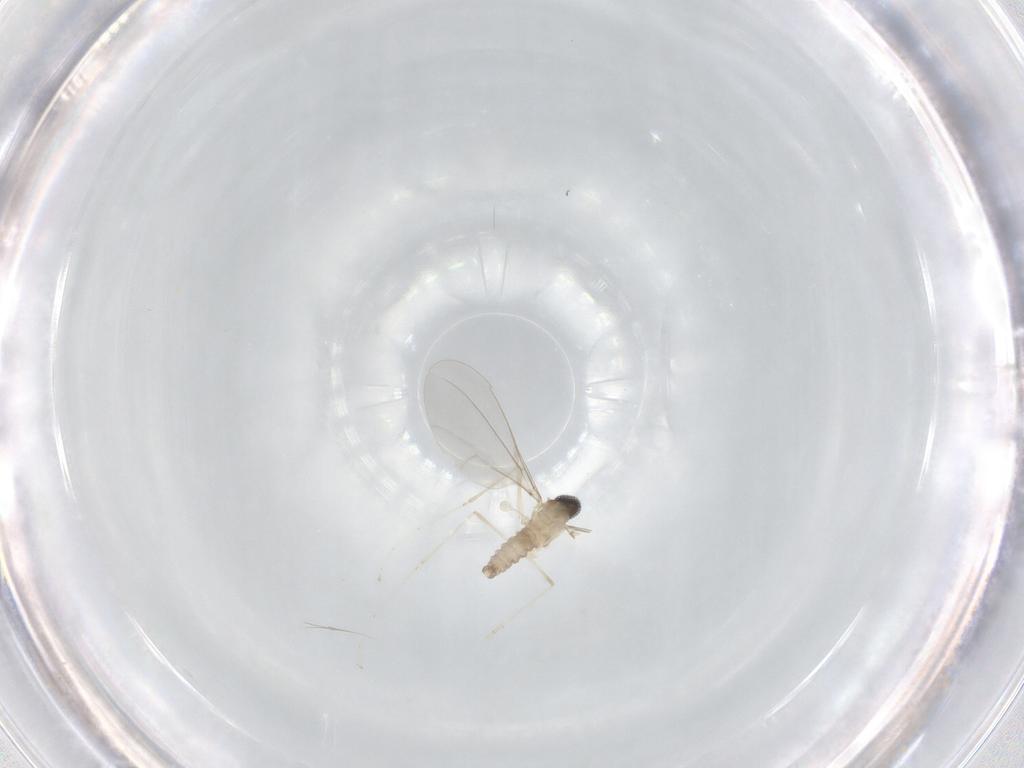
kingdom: Animalia
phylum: Arthropoda
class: Insecta
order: Diptera
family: Cecidomyiidae
